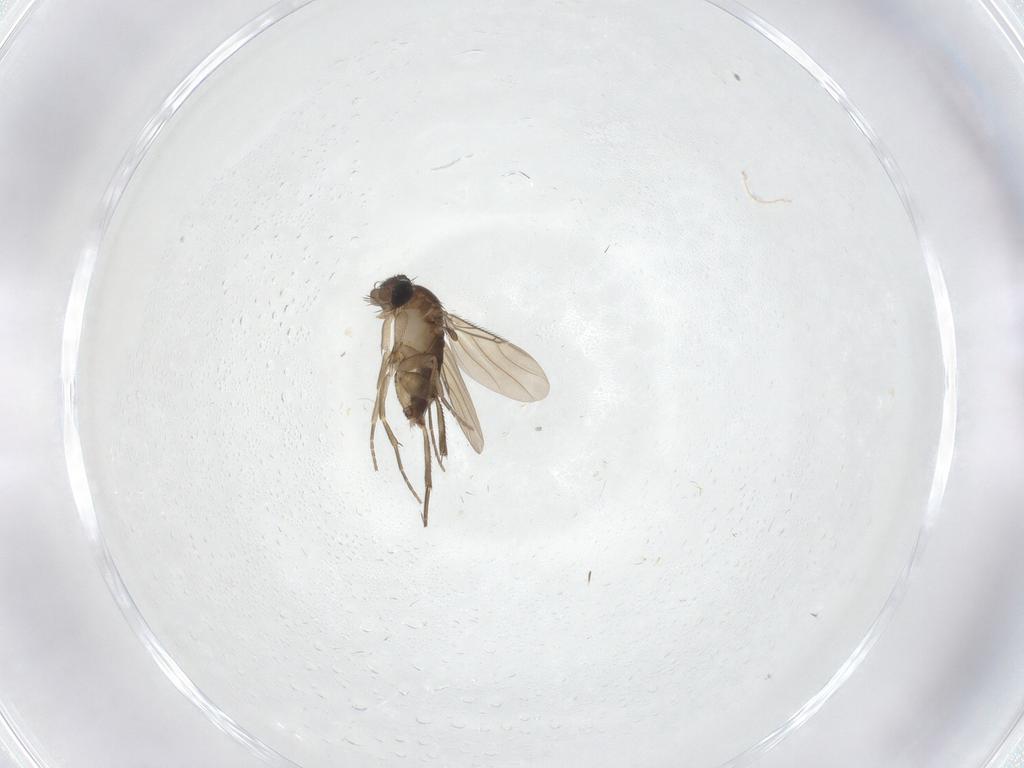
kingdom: Animalia
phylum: Arthropoda
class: Insecta
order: Diptera
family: Phoridae
